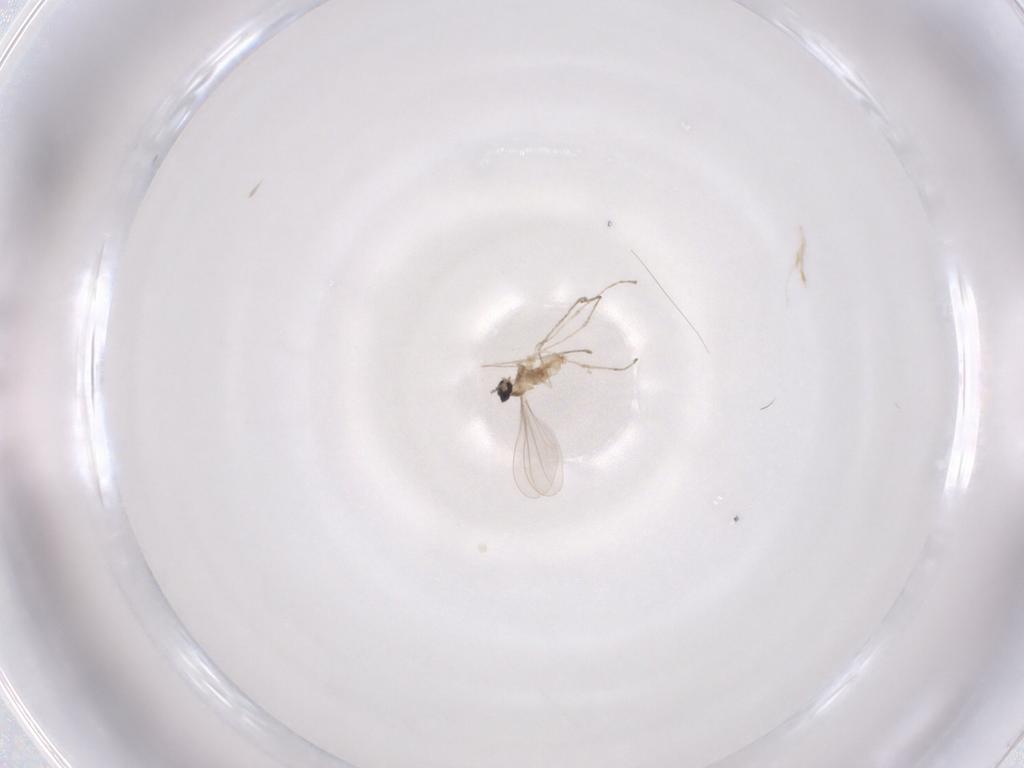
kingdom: Animalia
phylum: Arthropoda
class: Insecta
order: Diptera
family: Cecidomyiidae
